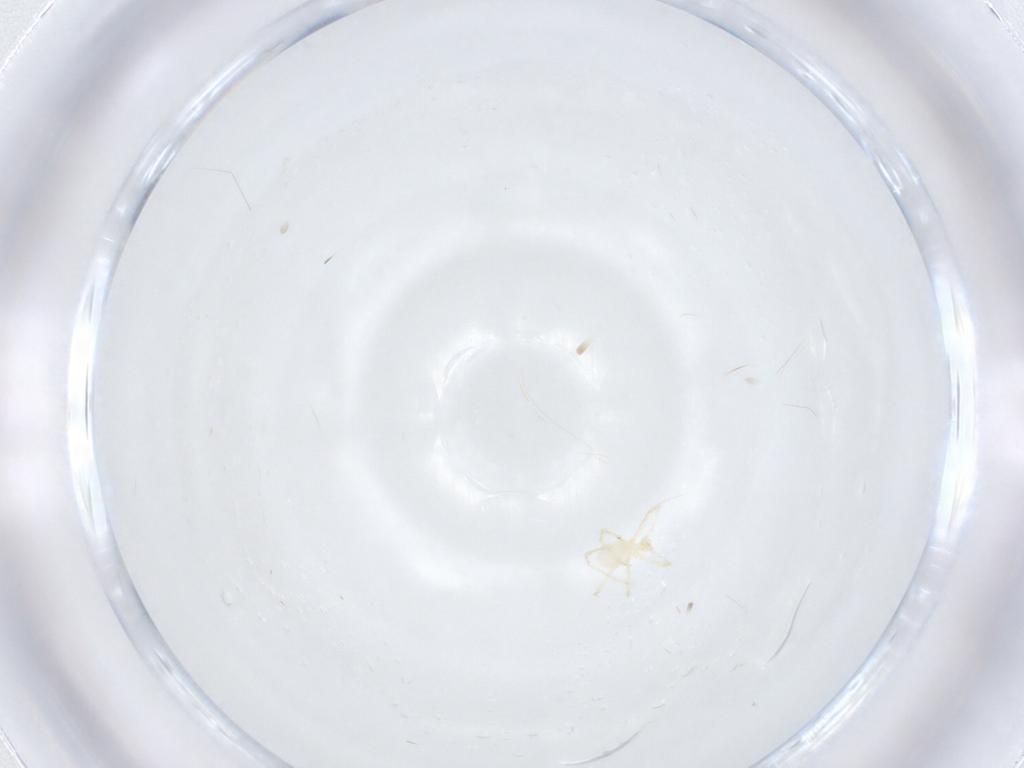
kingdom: Animalia
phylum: Arthropoda
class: Arachnida
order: Trombidiformes
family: Erythraeidae
